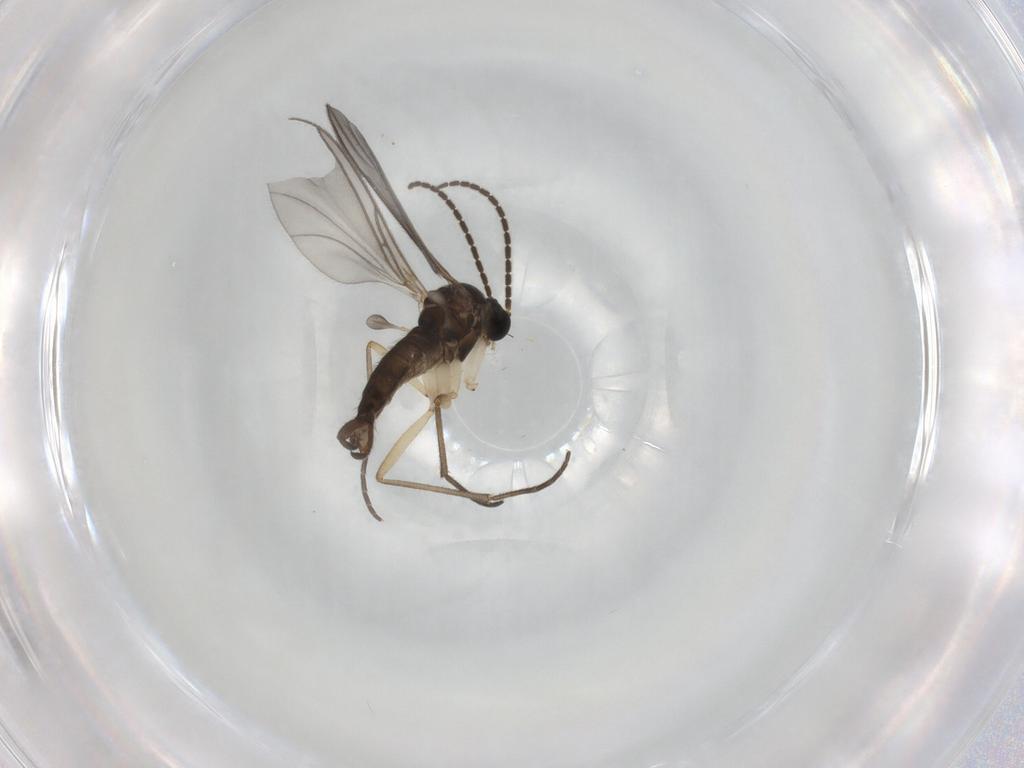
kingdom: Animalia
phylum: Arthropoda
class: Insecta
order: Diptera
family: Sciaridae
